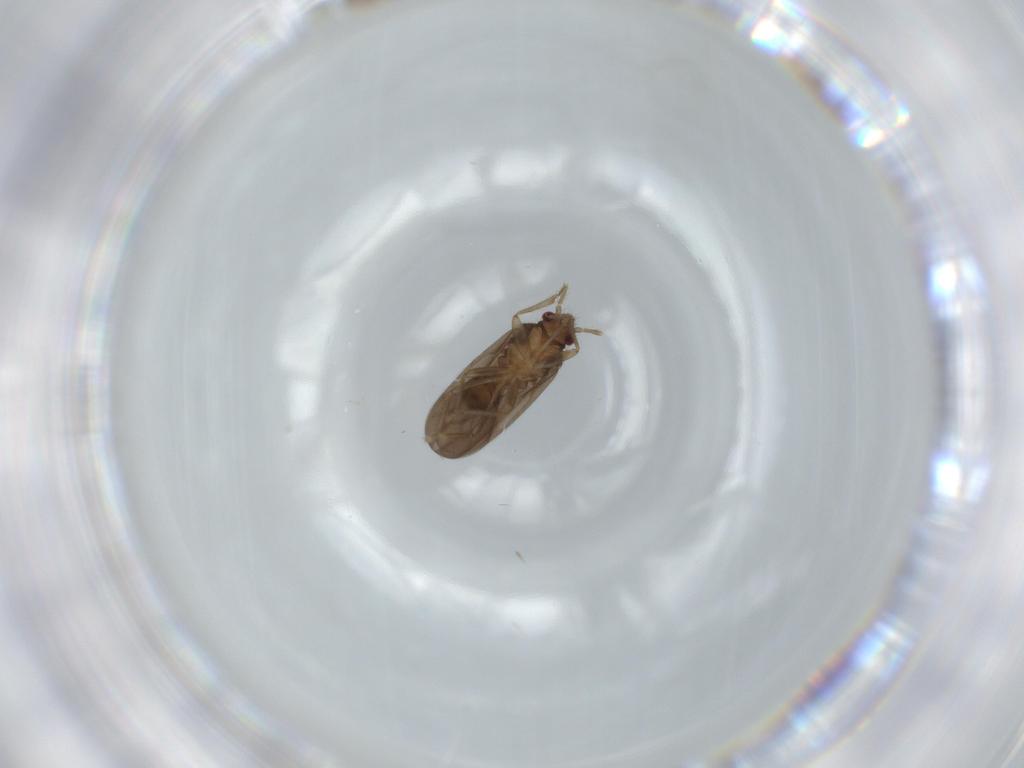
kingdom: Animalia
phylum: Arthropoda
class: Insecta
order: Hemiptera
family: Ceratocombidae
